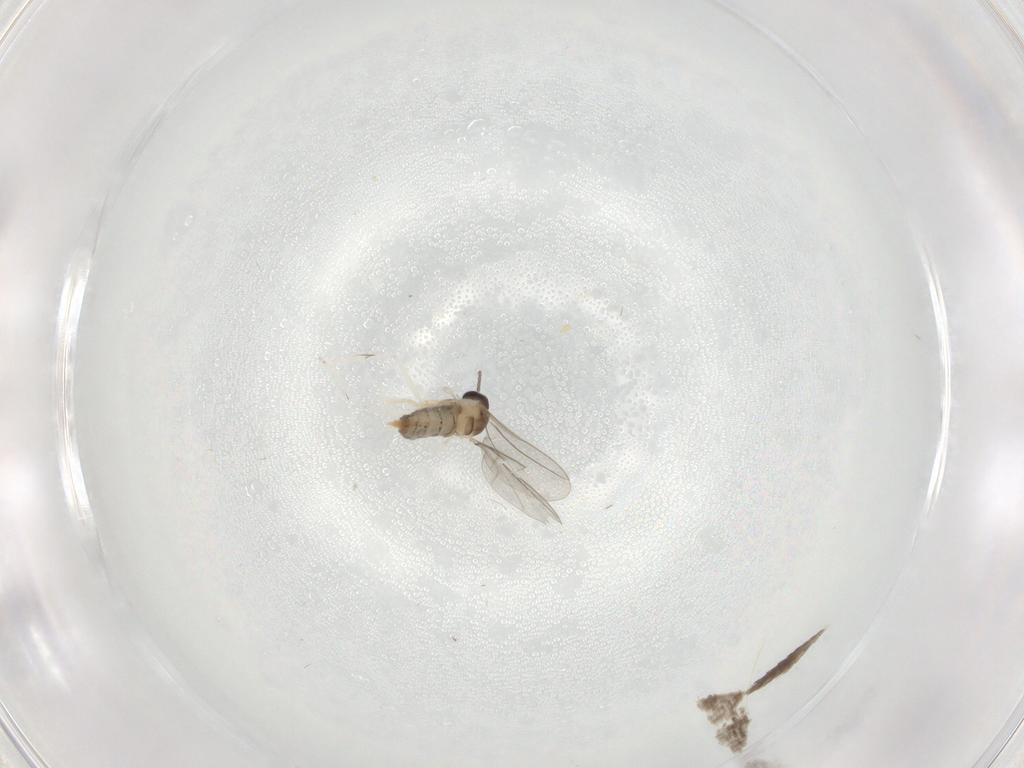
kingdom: Animalia
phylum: Arthropoda
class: Insecta
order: Diptera
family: Cecidomyiidae
